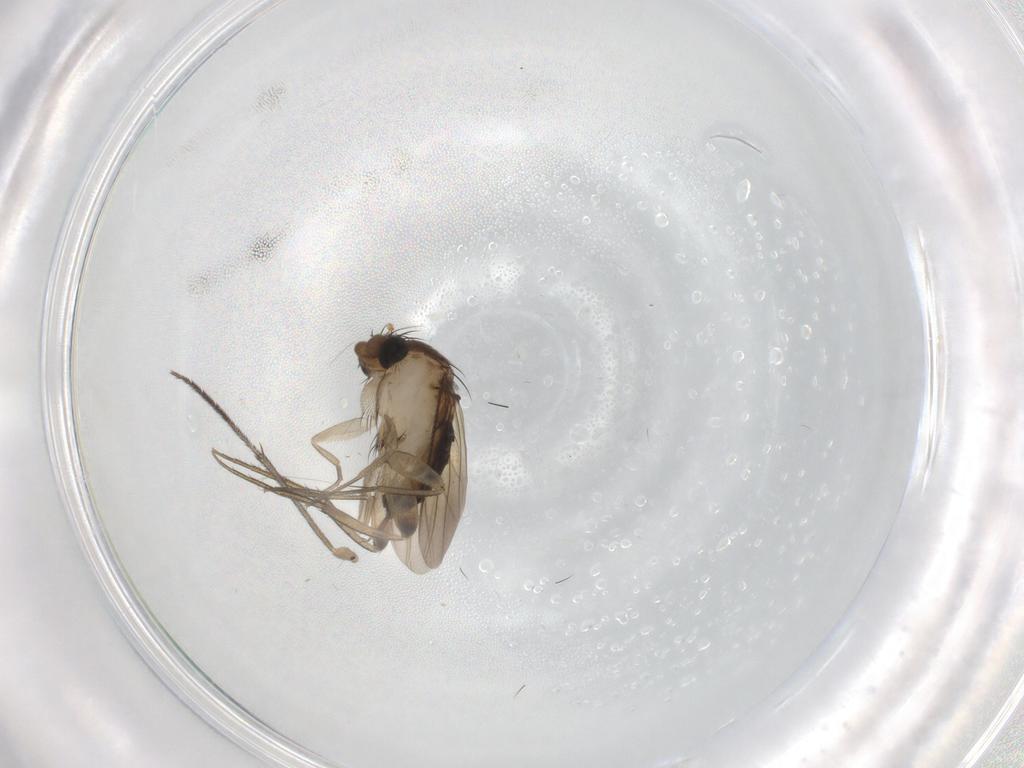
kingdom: Animalia
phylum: Arthropoda
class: Insecta
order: Diptera
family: Phoridae
